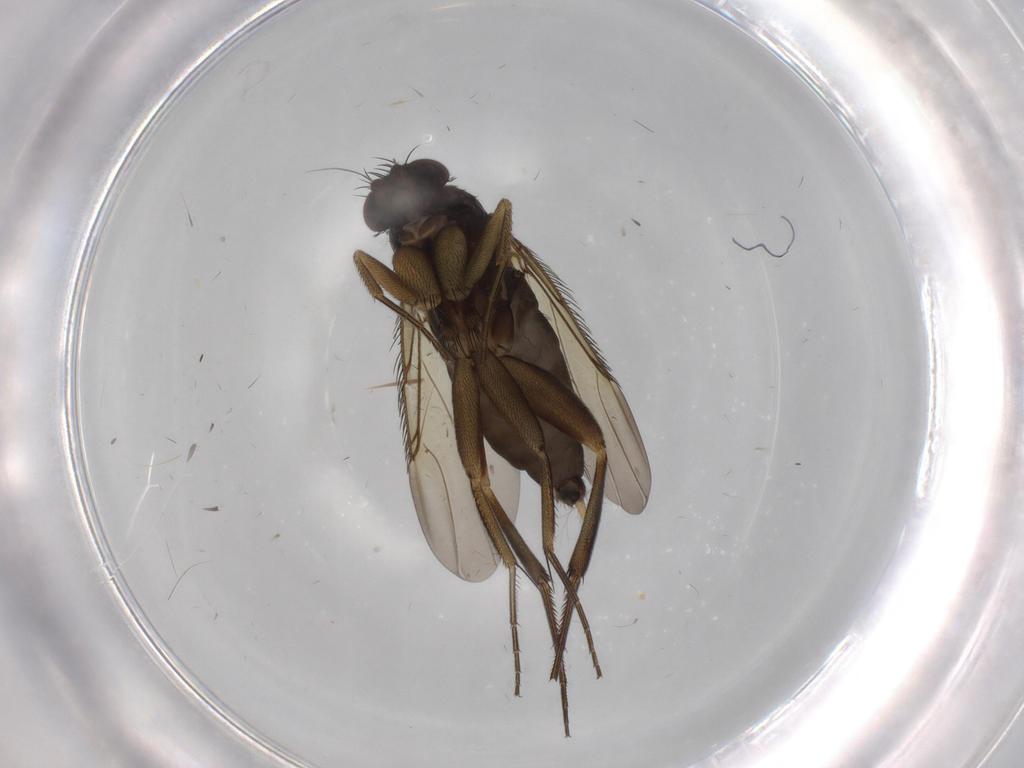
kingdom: Animalia
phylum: Arthropoda
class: Insecta
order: Diptera
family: Phoridae
